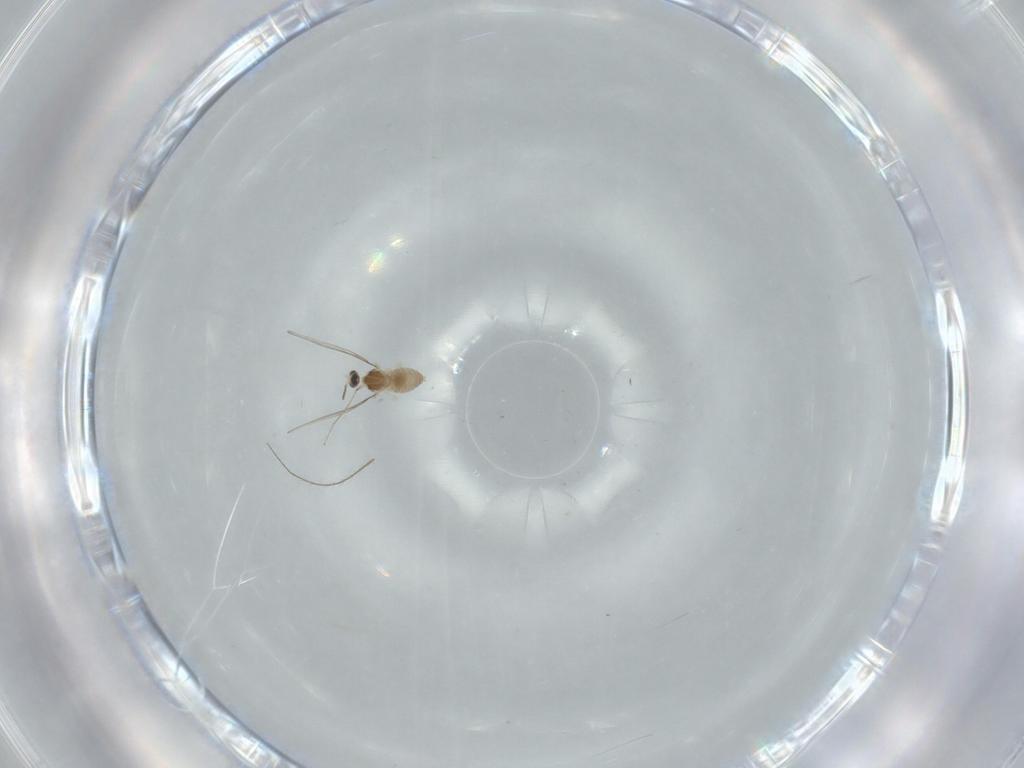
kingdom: Animalia
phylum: Arthropoda
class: Insecta
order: Diptera
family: Cecidomyiidae
